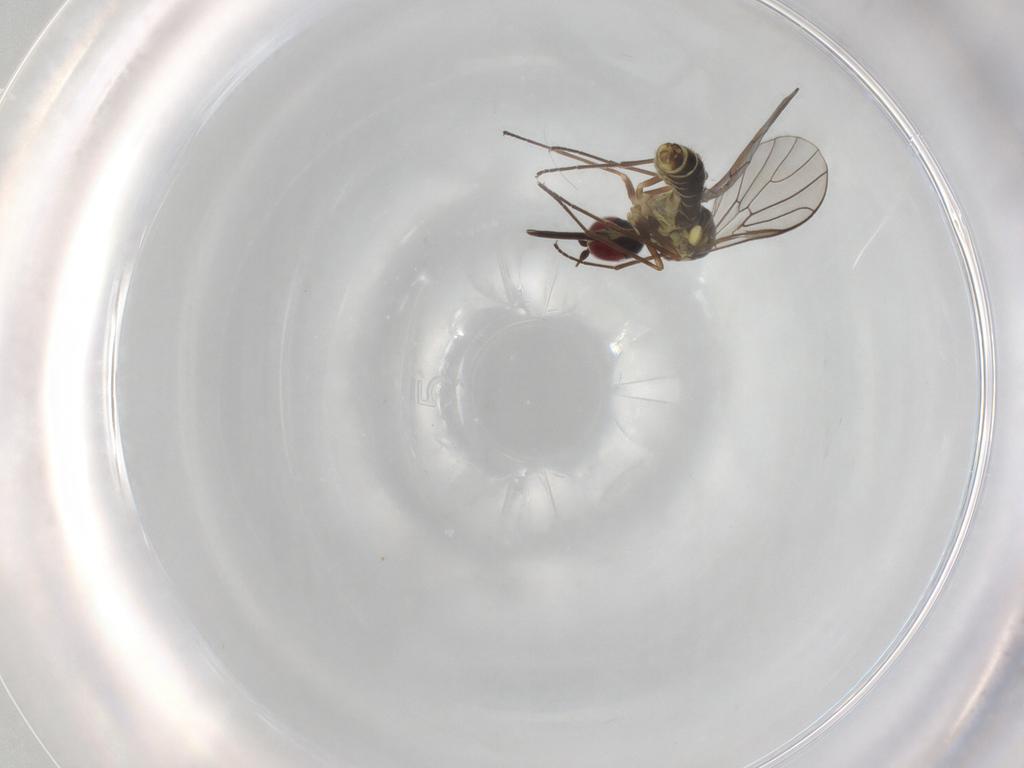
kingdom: Animalia
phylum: Arthropoda
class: Insecta
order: Diptera
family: Bombyliidae
